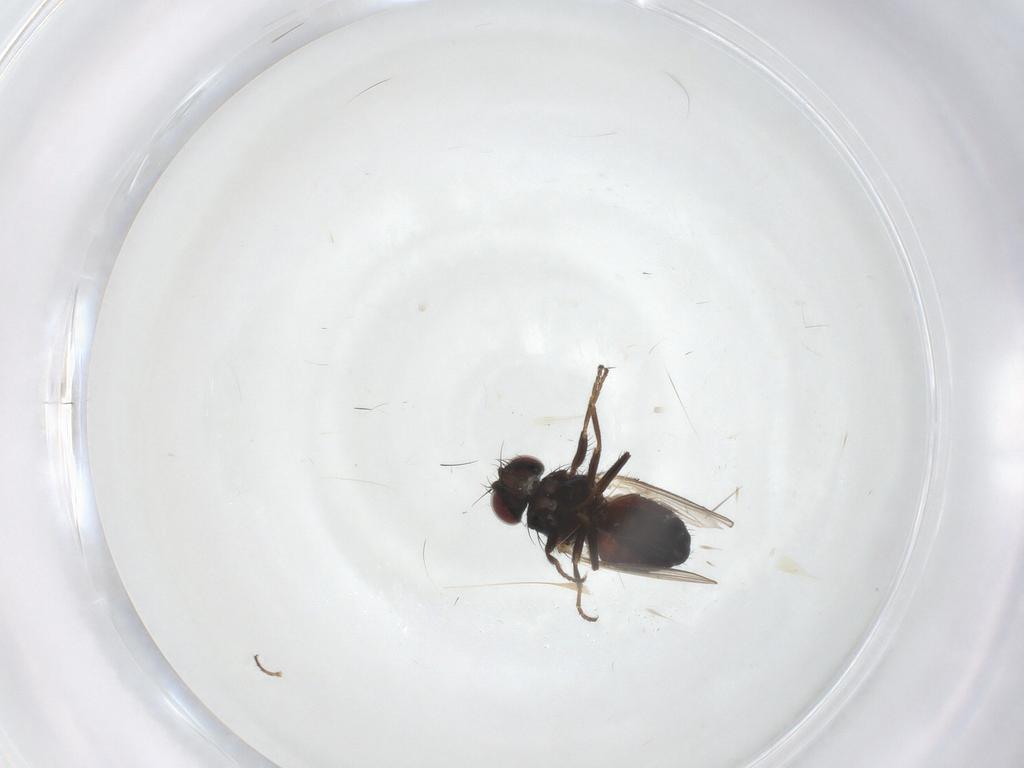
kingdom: Animalia
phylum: Arthropoda
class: Insecta
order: Diptera
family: Carnidae
